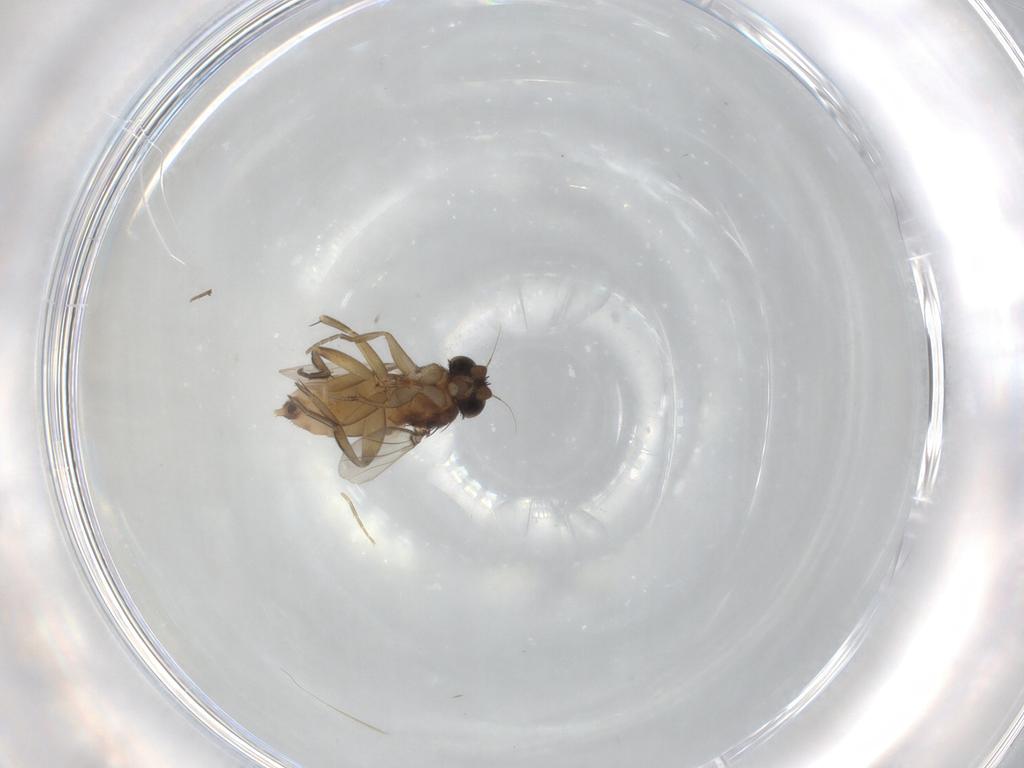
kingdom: Animalia
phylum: Arthropoda
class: Insecta
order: Diptera
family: Phoridae
